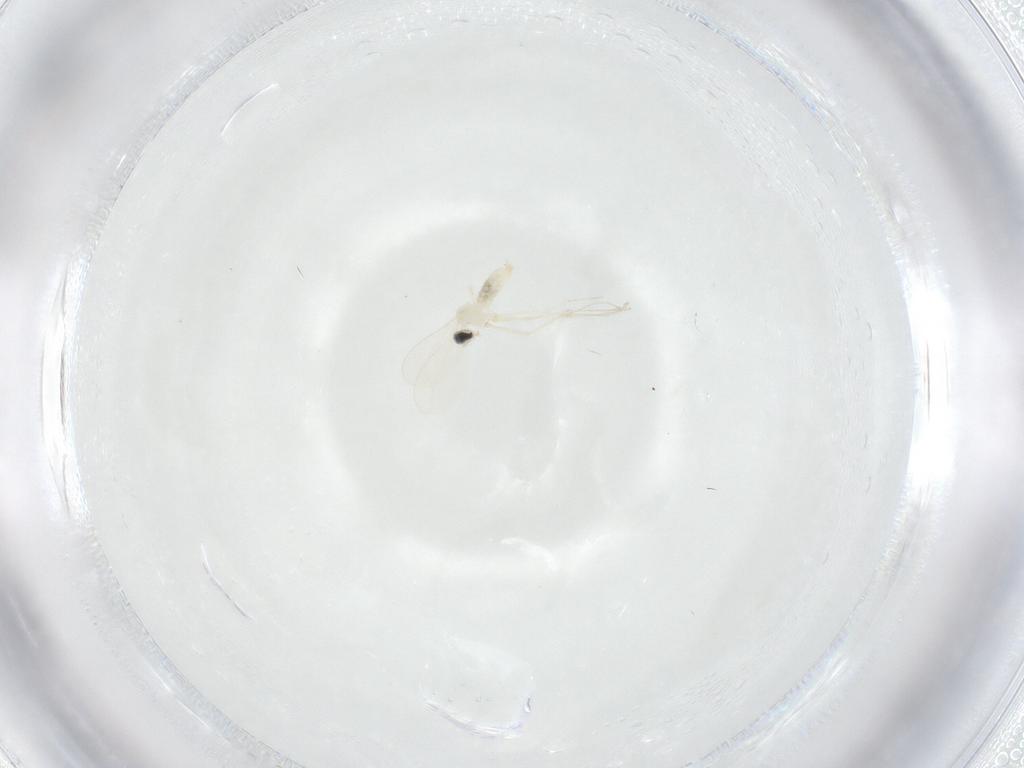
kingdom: Animalia
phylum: Arthropoda
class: Insecta
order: Diptera
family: Cecidomyiidae
